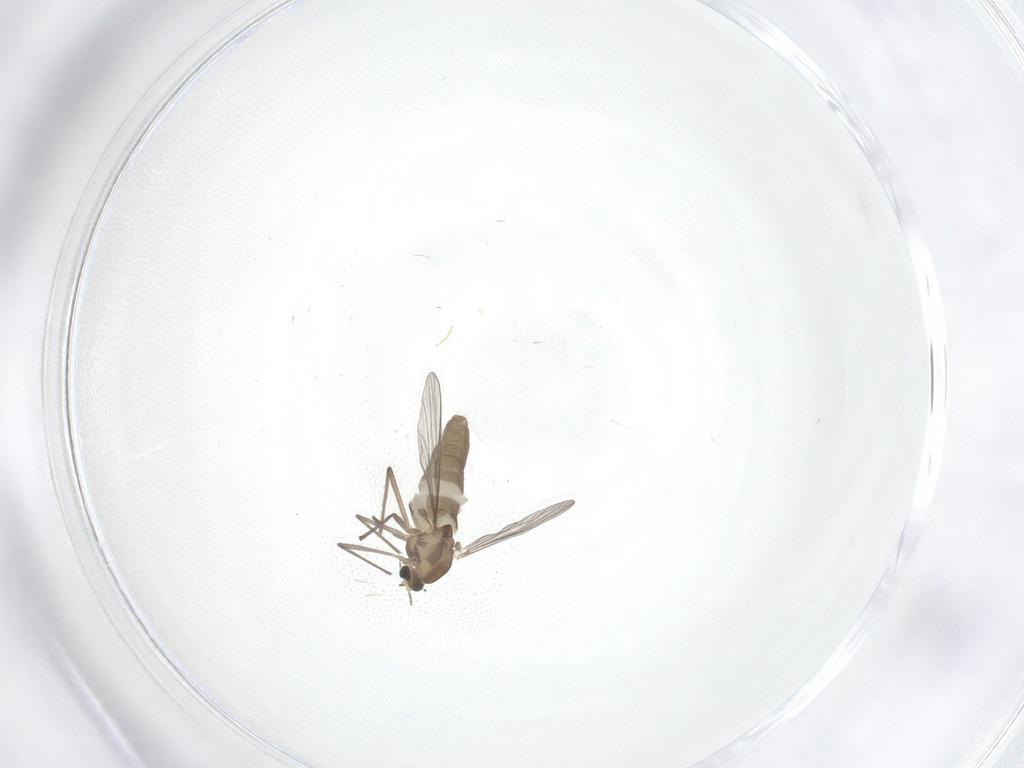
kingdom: Animalia
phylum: Arthropoda
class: Insecta
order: Diptera
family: Chironomidae
